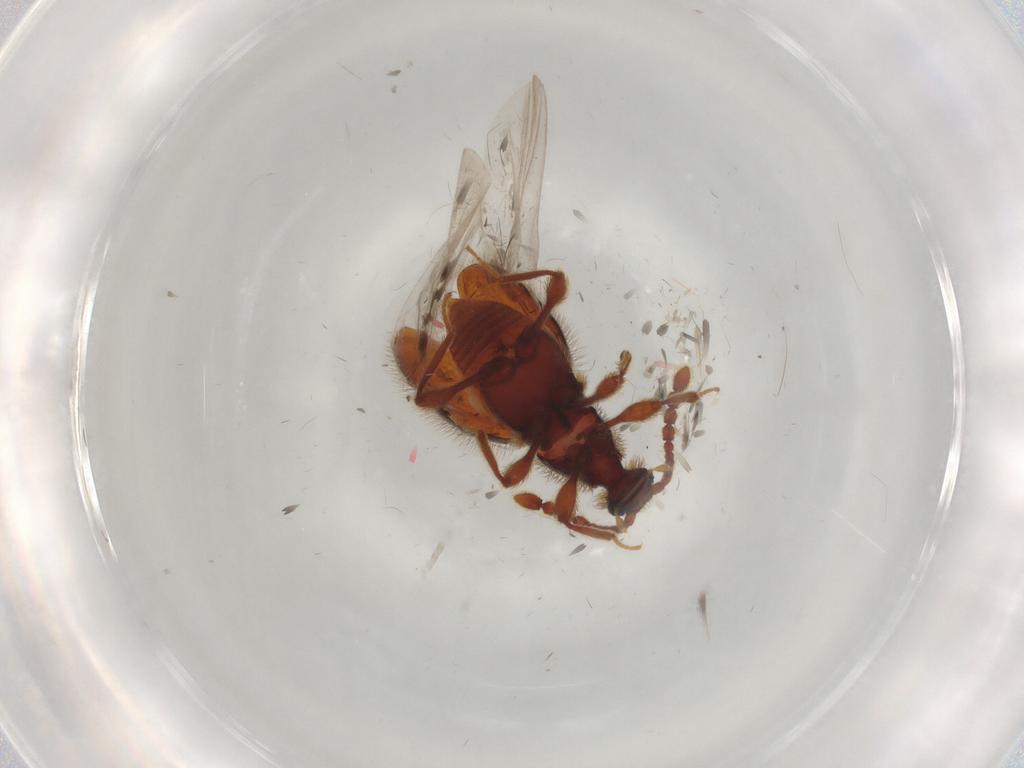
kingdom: Animalia
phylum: Arthropoda
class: Insecta
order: Coleoptera
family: Staphylinidae
